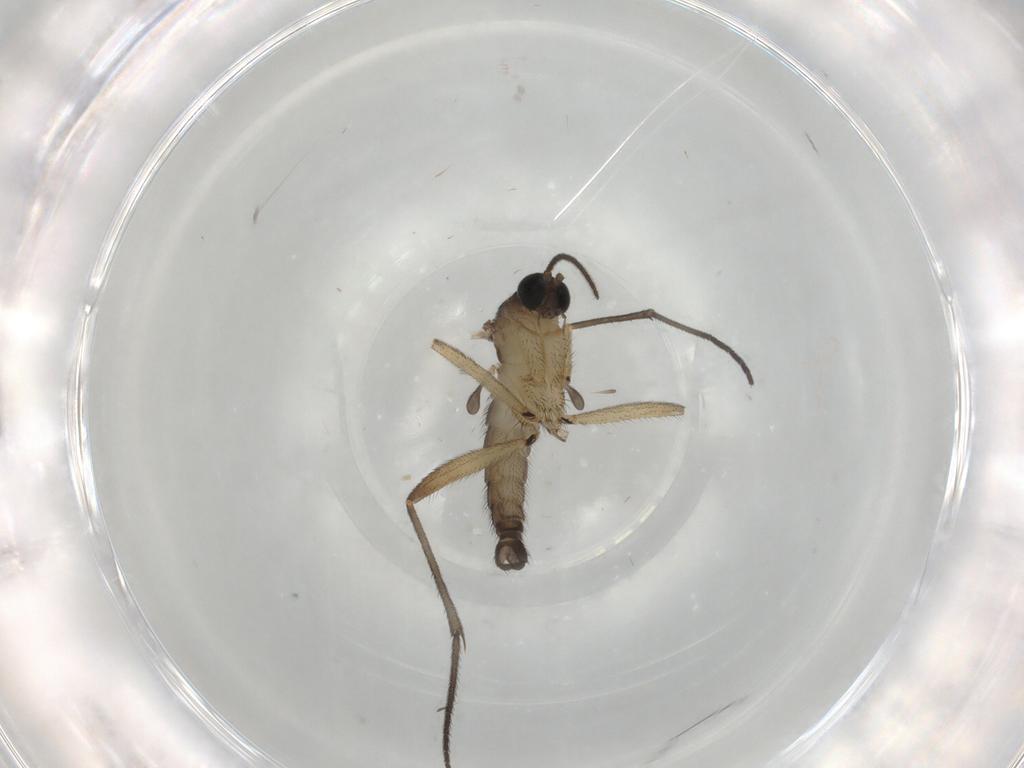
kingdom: Animalia
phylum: Arthropoda
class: Insecta
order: Diptera
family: Sciaridae
